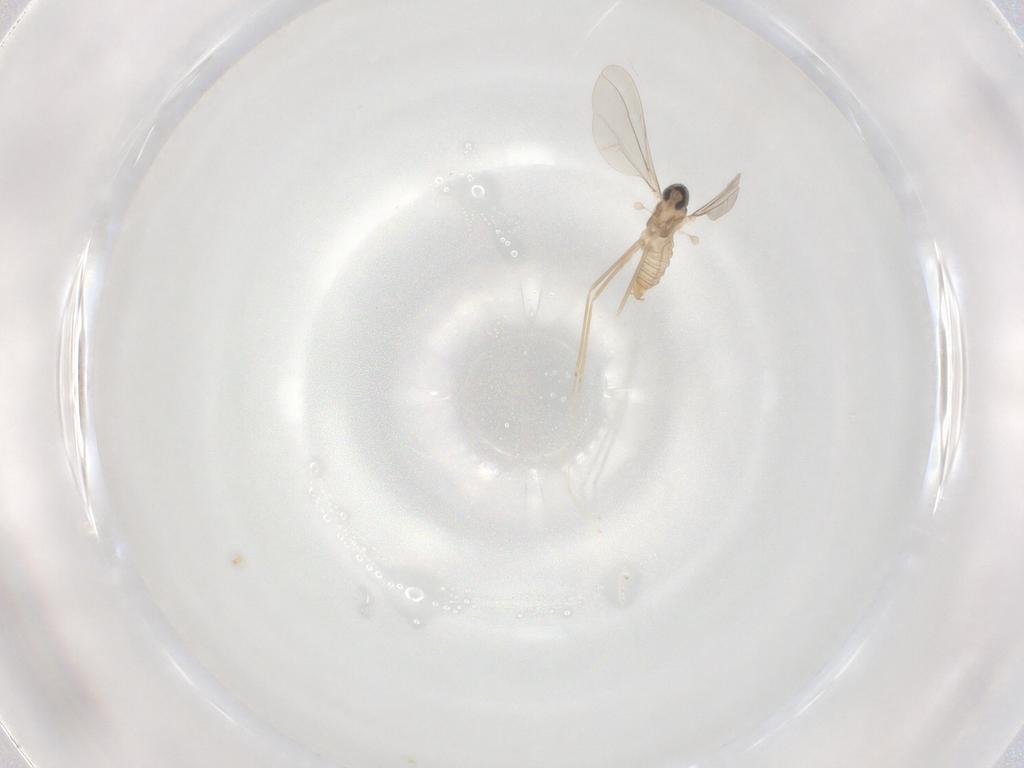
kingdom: Animalia
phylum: Arthropoda
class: Insecta
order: Diptera
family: Cecidomyiidae
